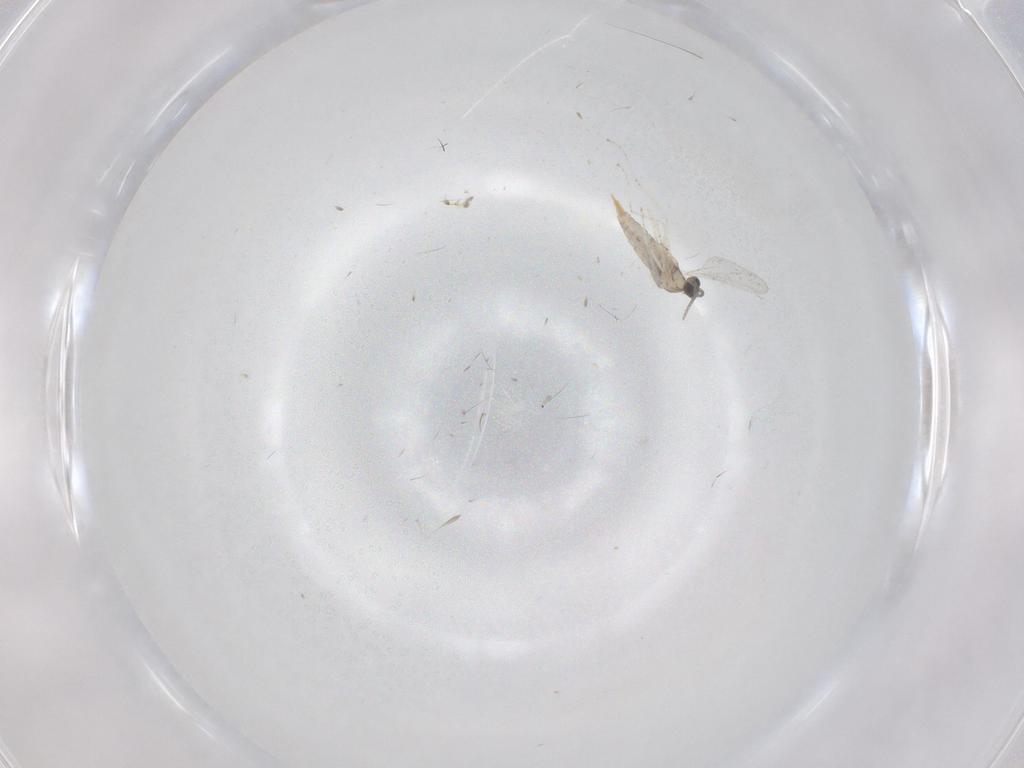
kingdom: Animalia
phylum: Arthropoda
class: Insecta
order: Diptera
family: Cecidomyiidae
